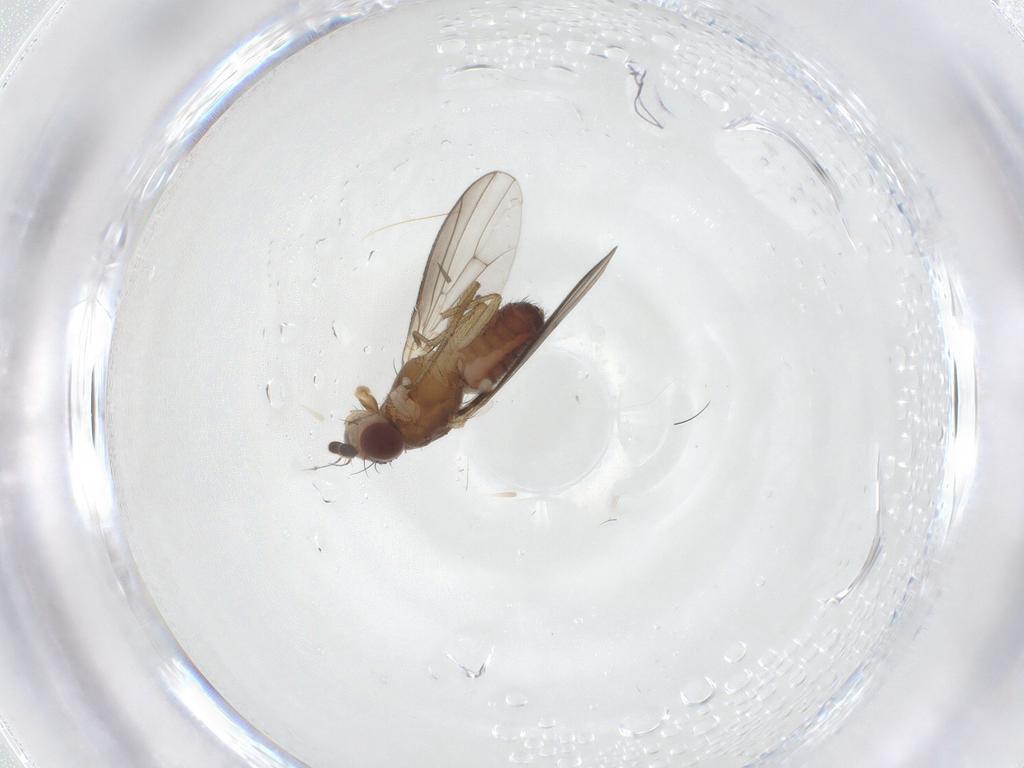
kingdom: Animalia
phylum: Arthropoda
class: Insecta
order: Diptera
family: Heleomyzidae
